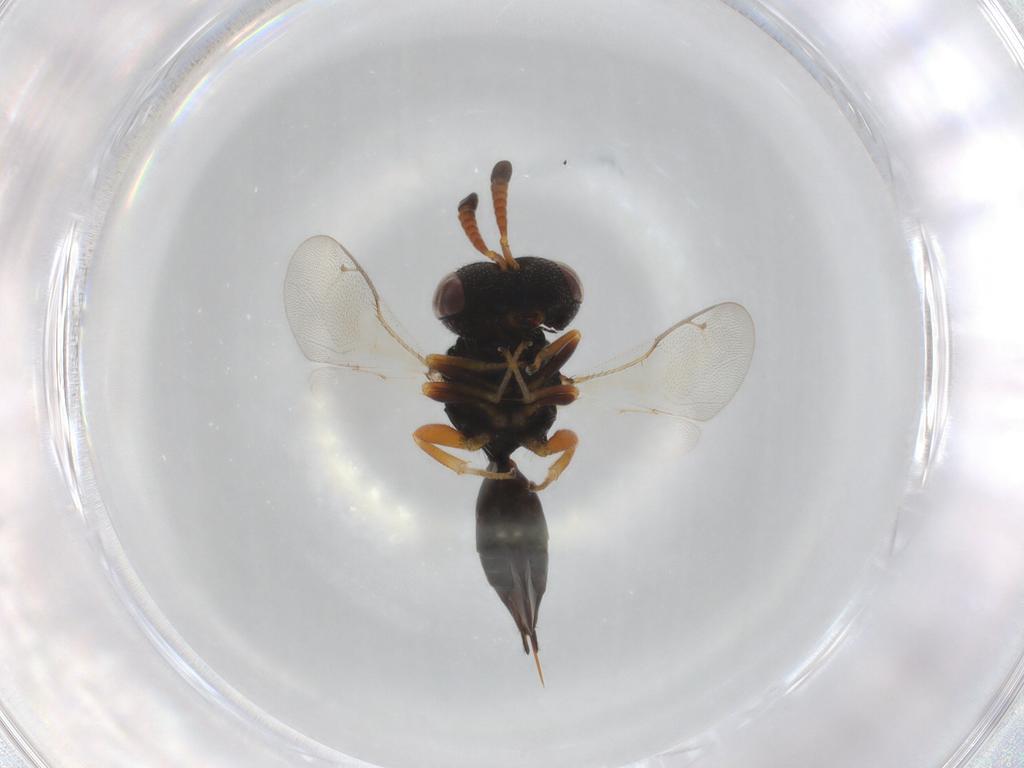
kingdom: Animalia
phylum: Arthropoda
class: Insecta
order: Hymenoptera
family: Pteromalidae
